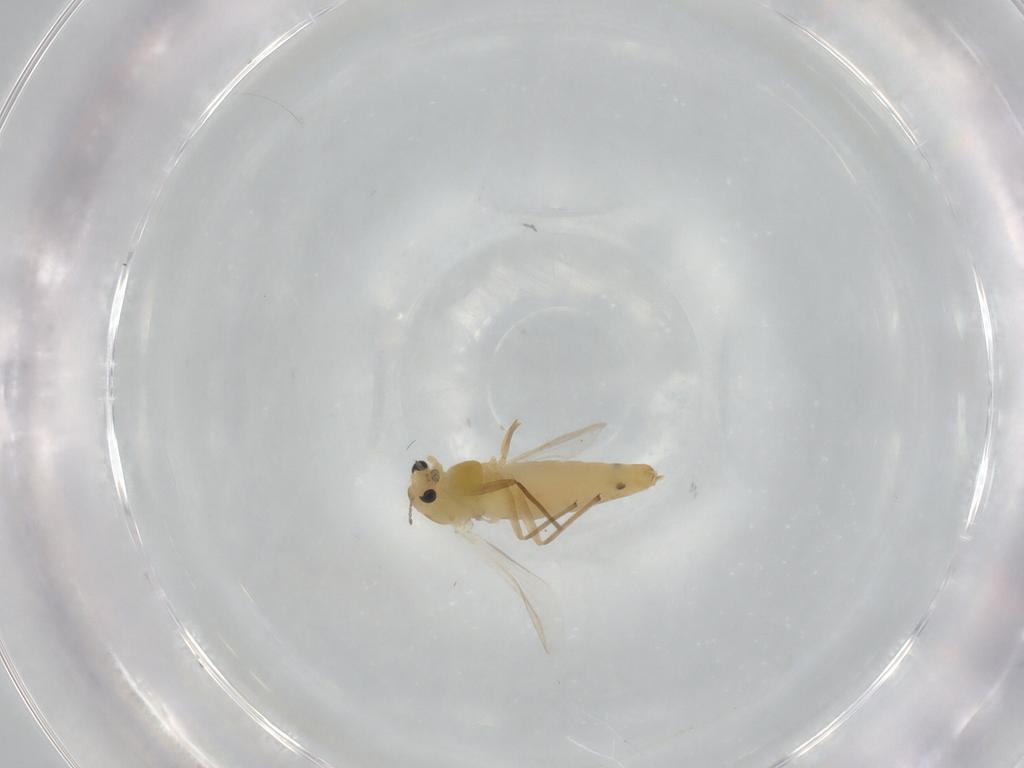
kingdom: Animalia
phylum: Arthropoda
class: Insecta
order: Diptera
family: Chironomidae
